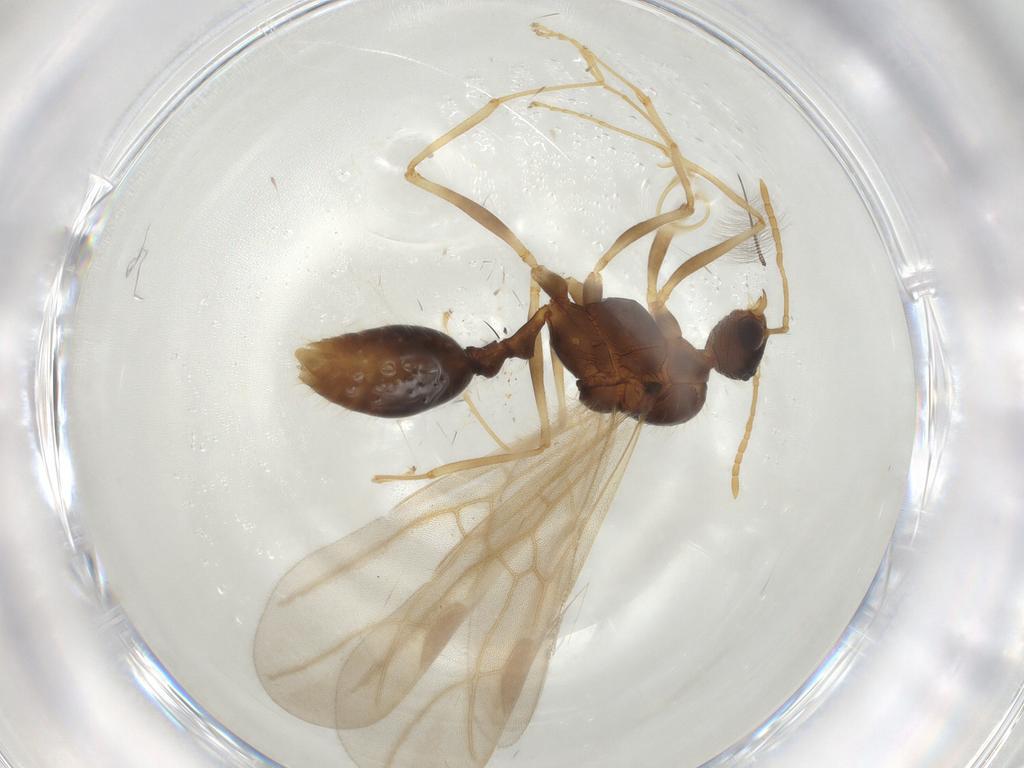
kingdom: Animalia
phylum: Arthropoda
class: Insecta
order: Hymenoptera
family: Formicidae
